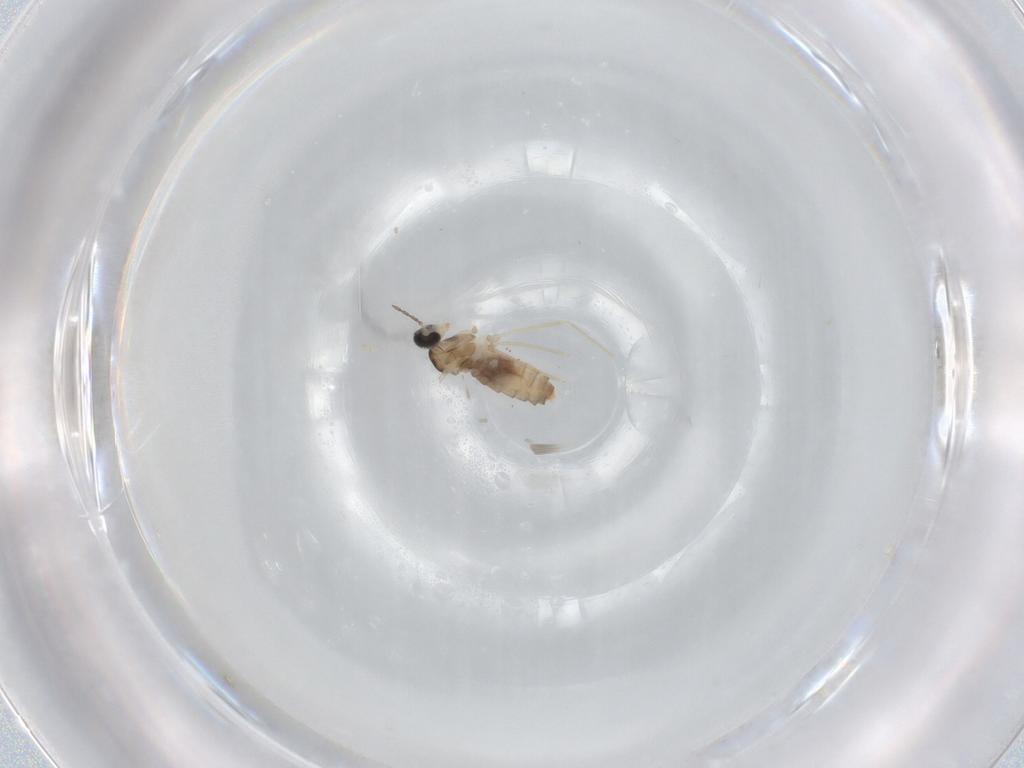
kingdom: Animalia
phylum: Arthropoda
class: Insecta
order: Diptera
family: Cecidomyiidae
